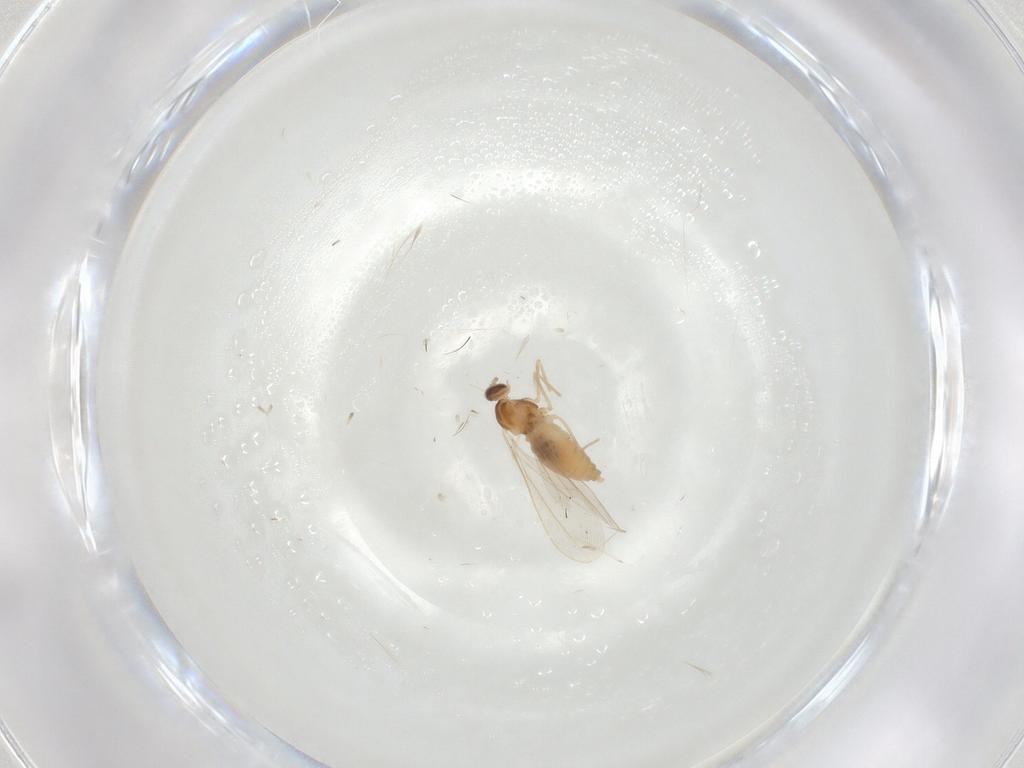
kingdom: Animalia
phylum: Arthropoda
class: Insecta
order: Diptera
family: Cecidomyiidae
